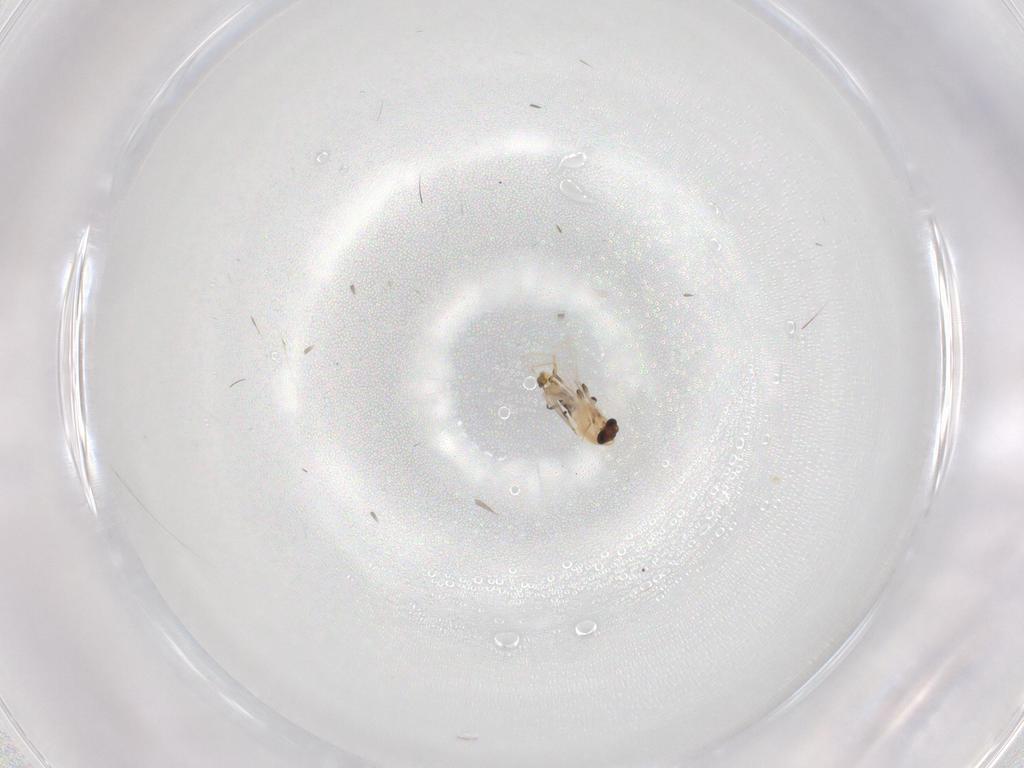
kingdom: Animalia
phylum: Arthropoda
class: Insecta
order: Diptera
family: Chironomidae
